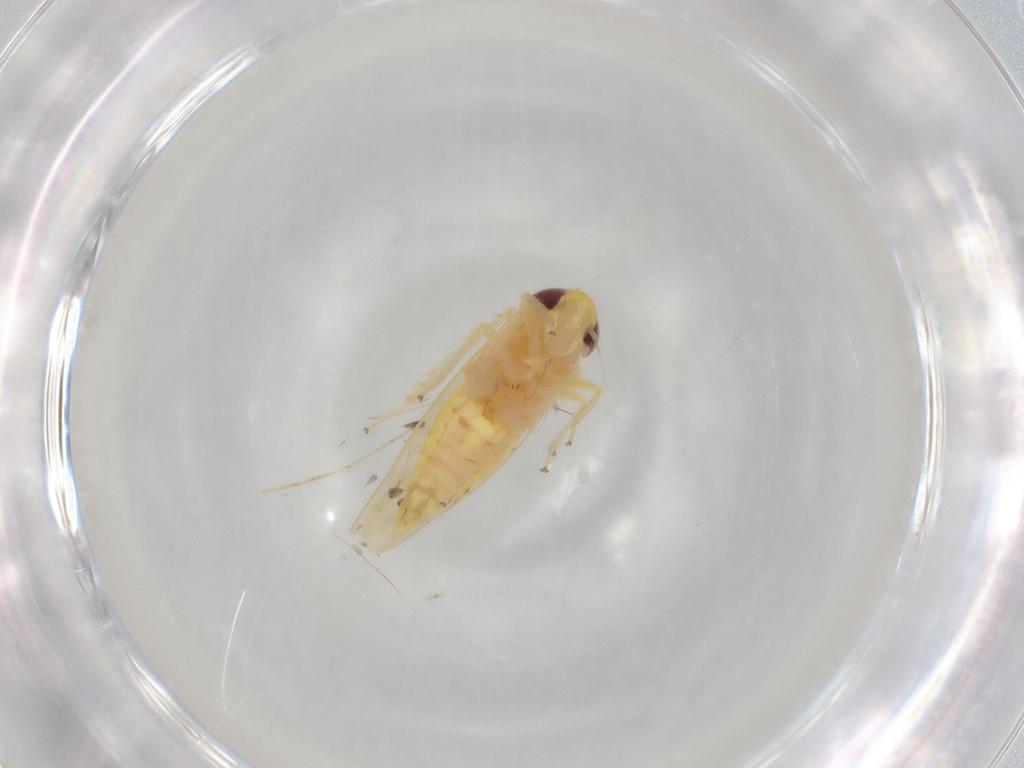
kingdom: Animalia
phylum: Arthropoda
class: Insecta
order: Hemiptera
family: Cicadellidae
